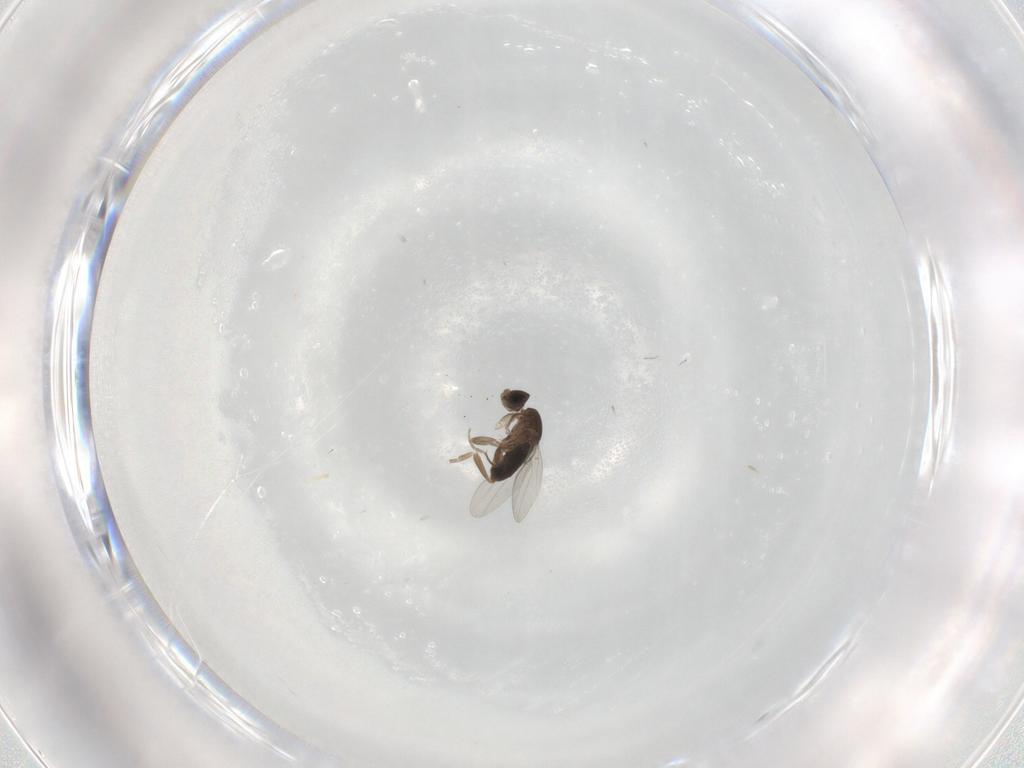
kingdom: Animalia
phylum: Arthropoda
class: Insecta
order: Diptera
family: Phoridae
